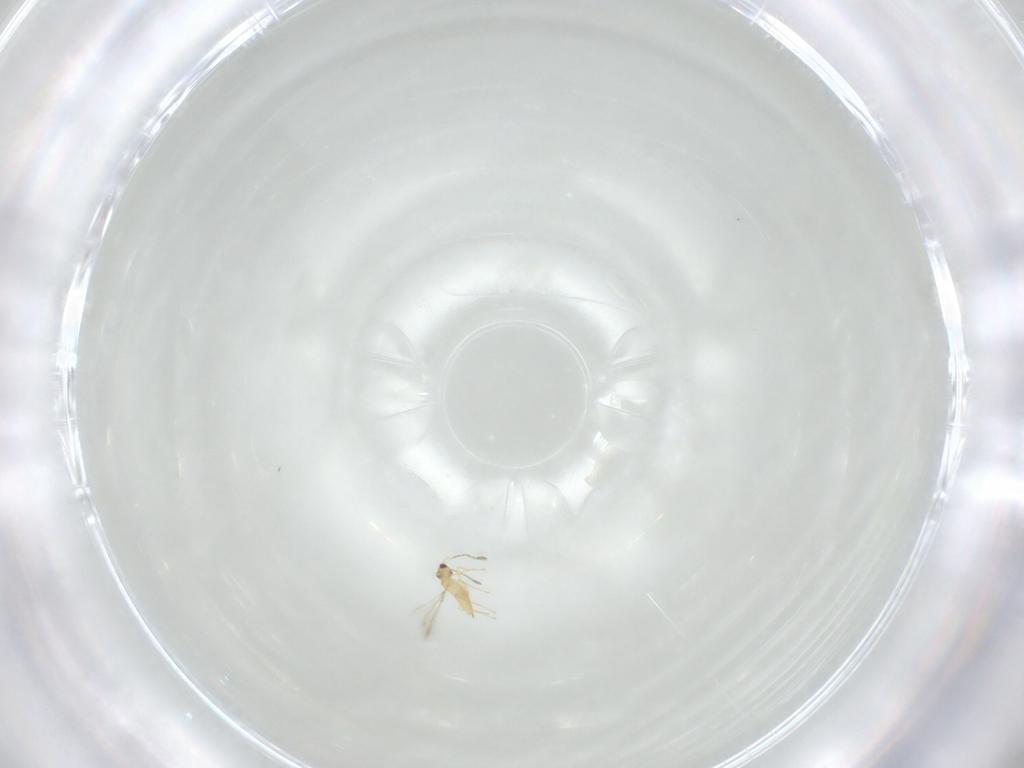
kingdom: Animalia
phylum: Arthropoda
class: Insecta
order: Hymenoptera
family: Mymaridae
